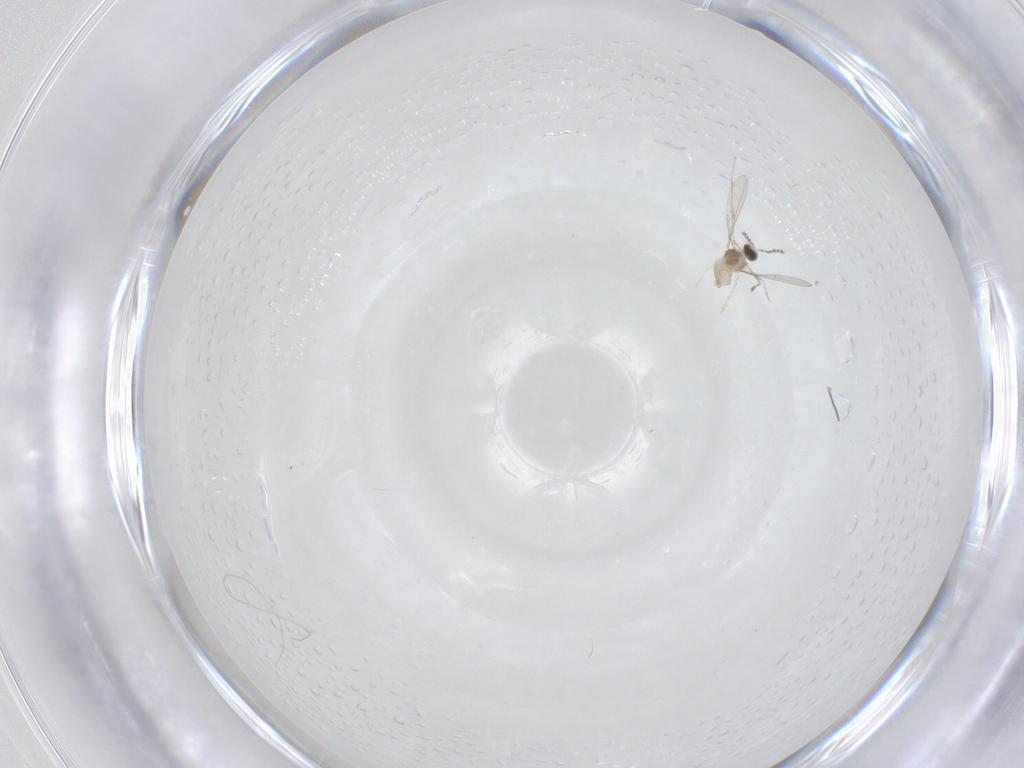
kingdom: Animalia
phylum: Arthropoda
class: Insecta
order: Diptera
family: Cecidomyiidae
